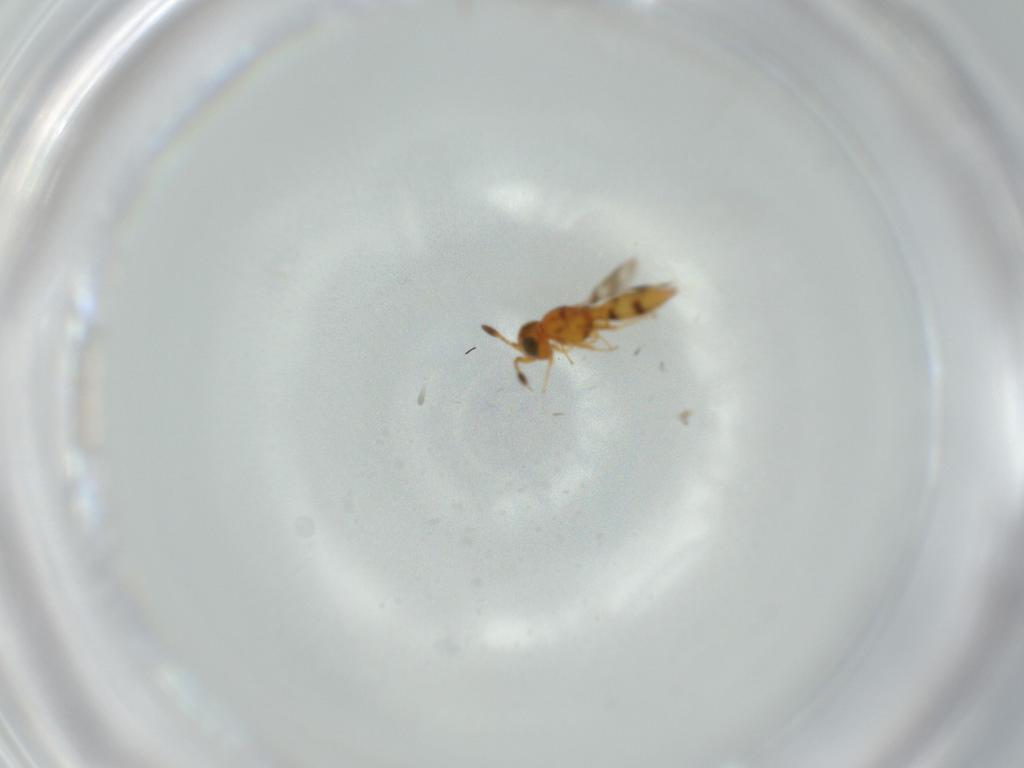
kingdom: Animalia
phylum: Arthropoda
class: Insecta
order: Hymenoptera
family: Scelionidae
